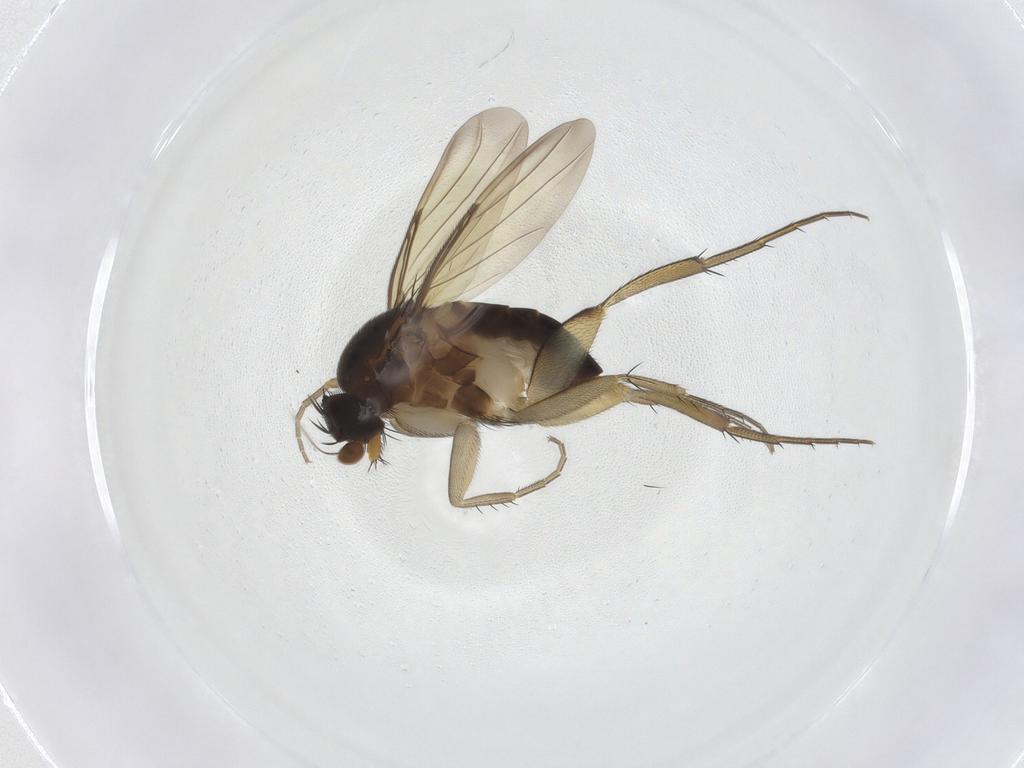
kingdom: Animalia
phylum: Arthropoda
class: Insecta
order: Diptera
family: Phoridae
